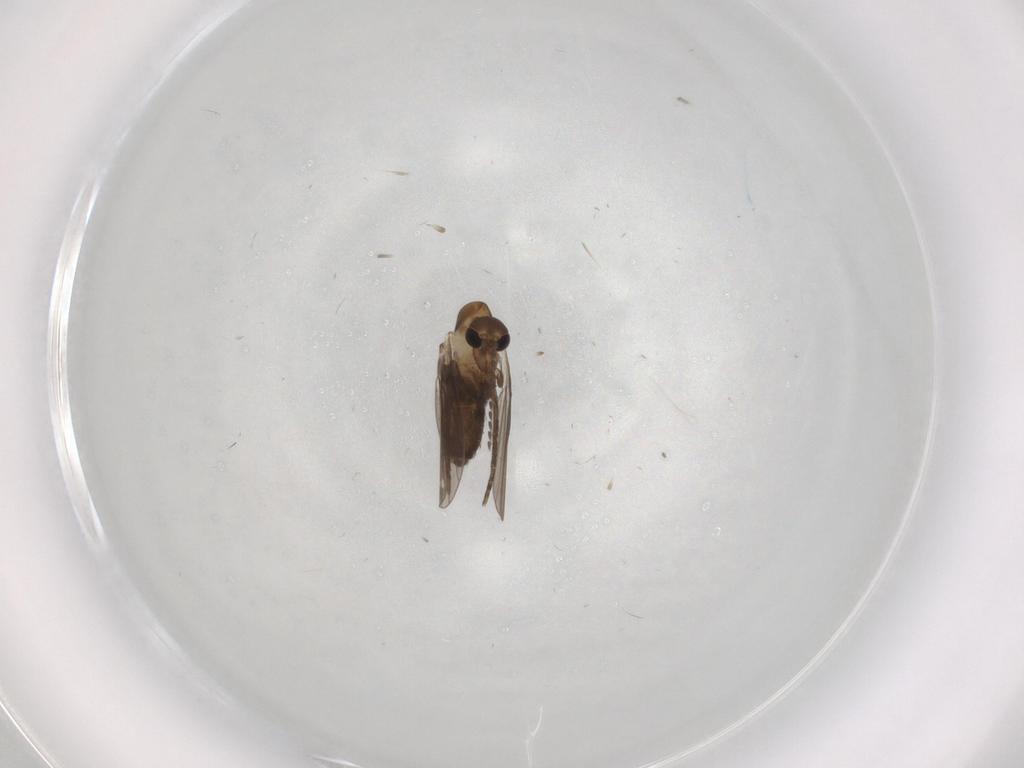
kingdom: Animalia
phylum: Arthropoda
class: Insecta
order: Diptera
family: Psychodidae
